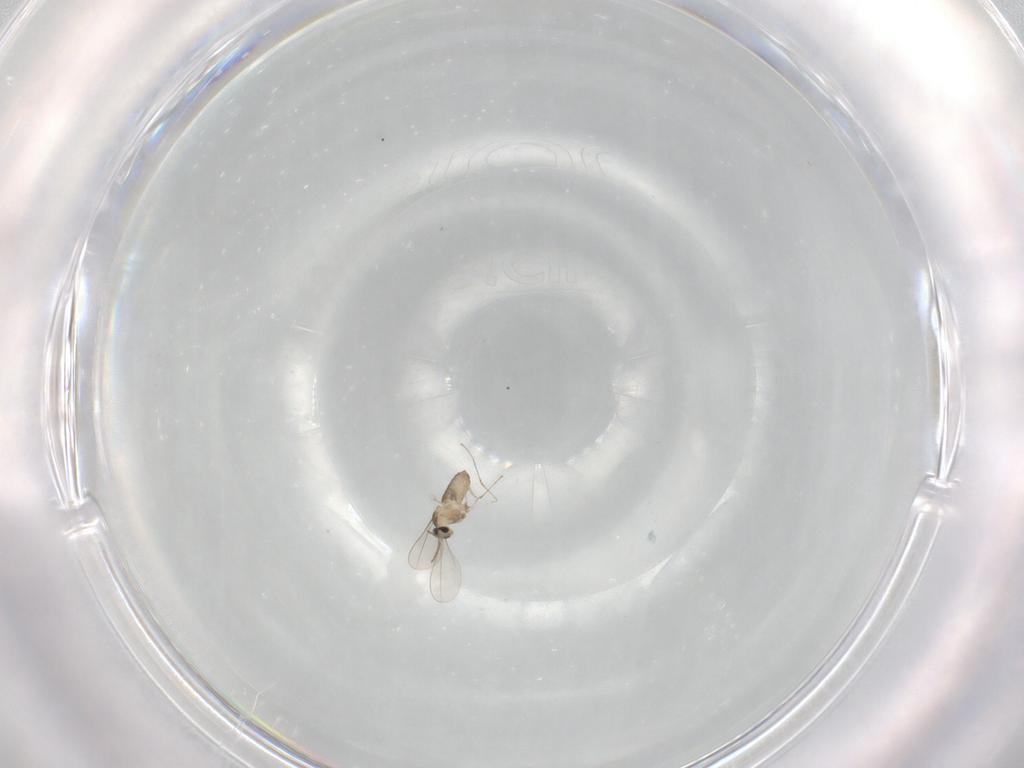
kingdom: Animalia
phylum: Arthropoda
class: Insecta
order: Diptera
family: Cecidomyiidae
